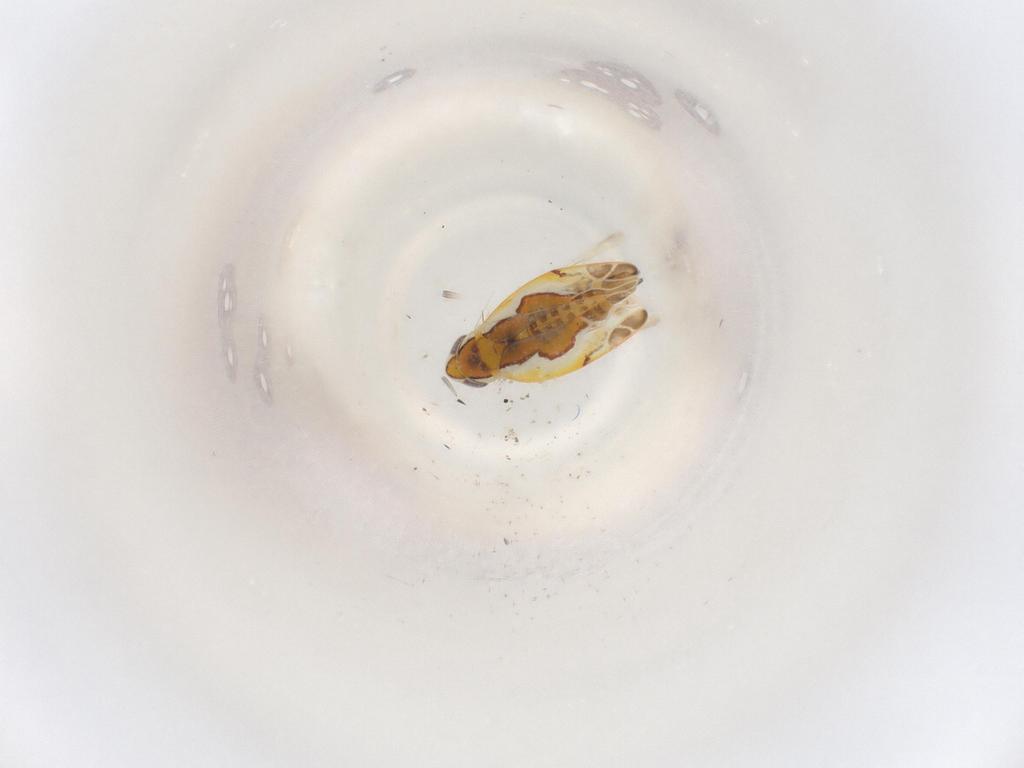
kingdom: Animalia
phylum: Arthropoda
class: Insecta
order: Hemiptera
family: Cicadellidae
